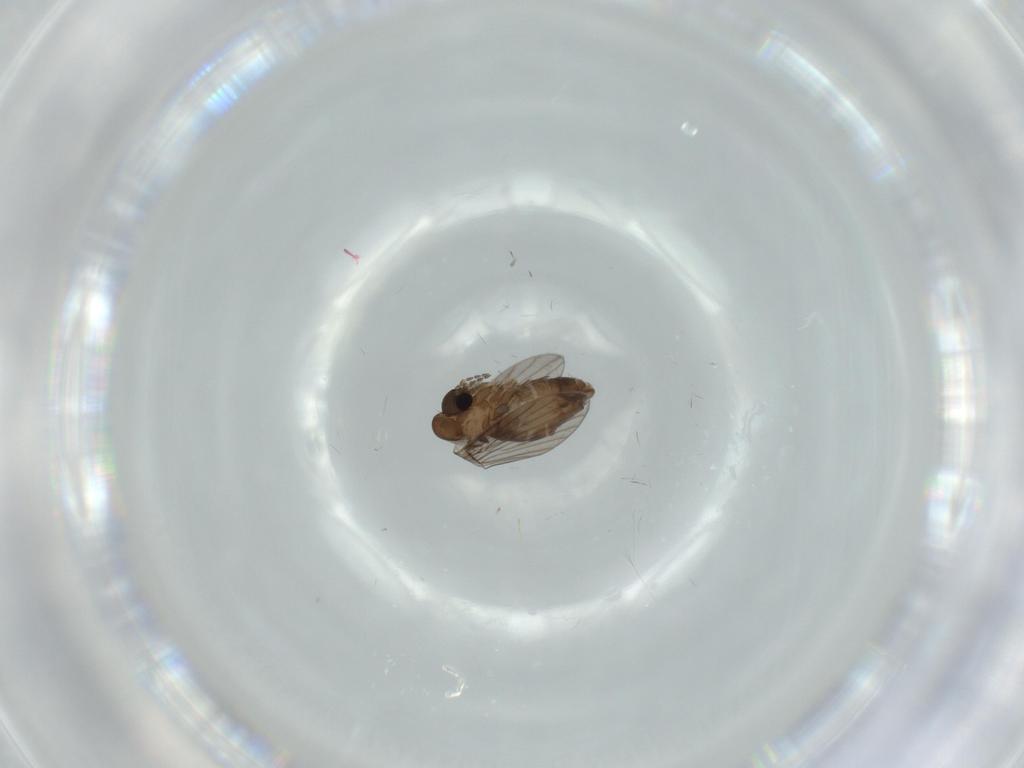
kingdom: Animalia
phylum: Arthropoda
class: Insecta
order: Diptera
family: Psychodidae
